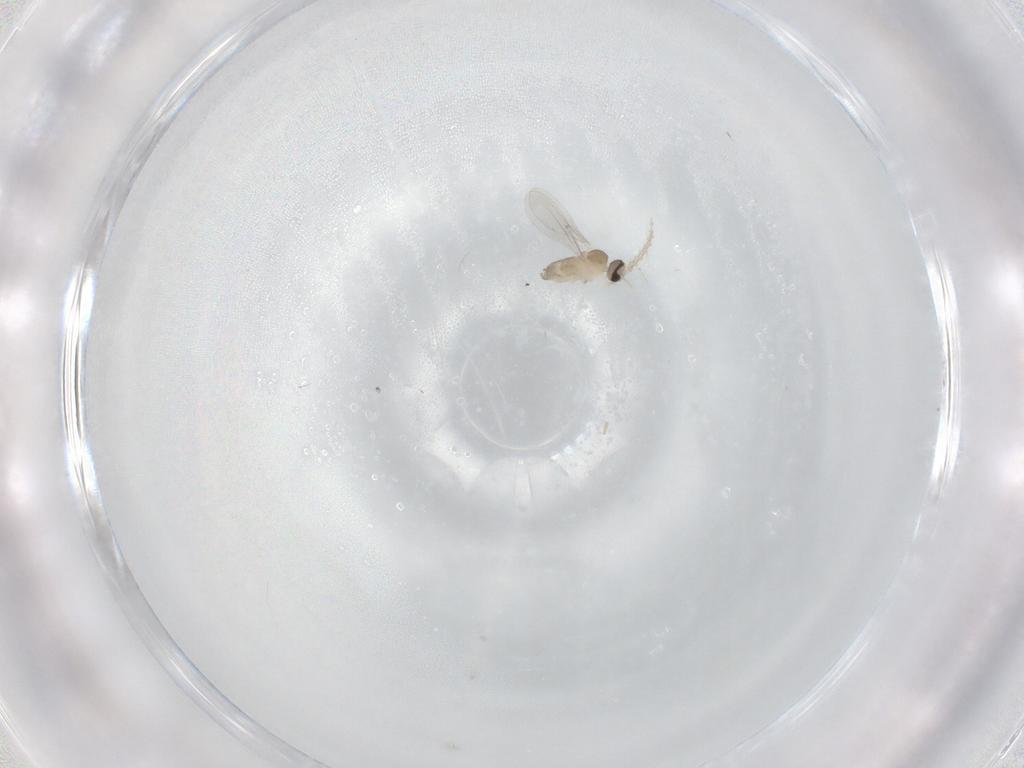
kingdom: Animalia
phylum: Arthropoda
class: Insecta
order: Diptera
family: Cecidomyiidae
